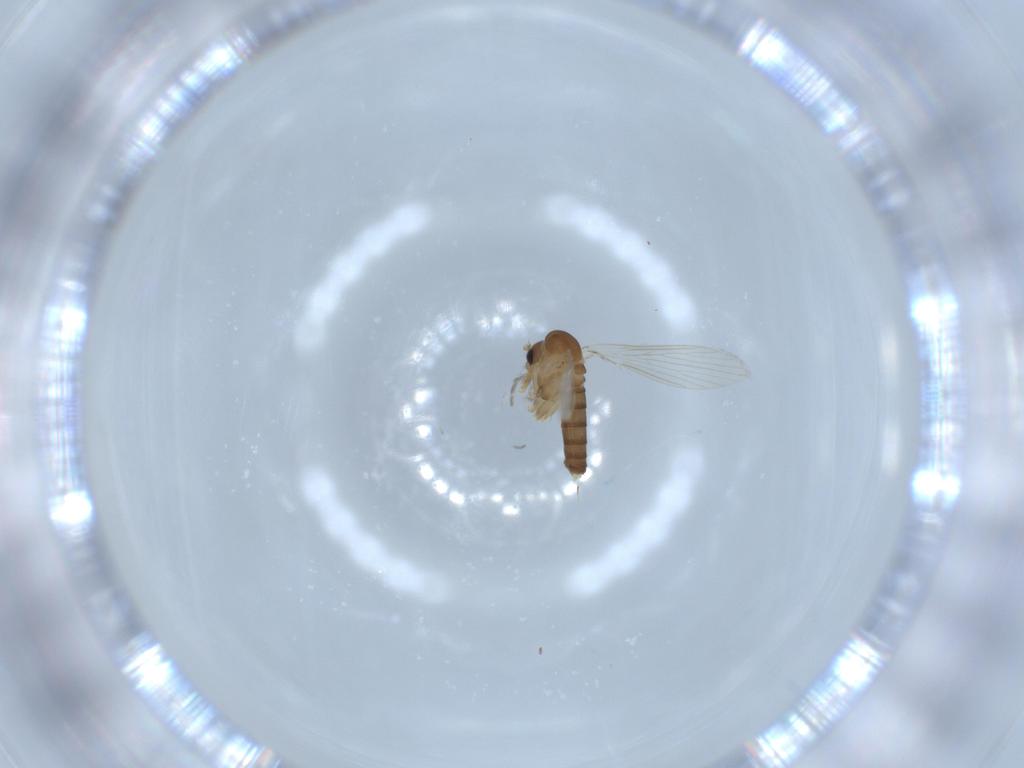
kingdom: Animalia
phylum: Arthropoda
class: Insecta
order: Diptera
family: Psychodidae
